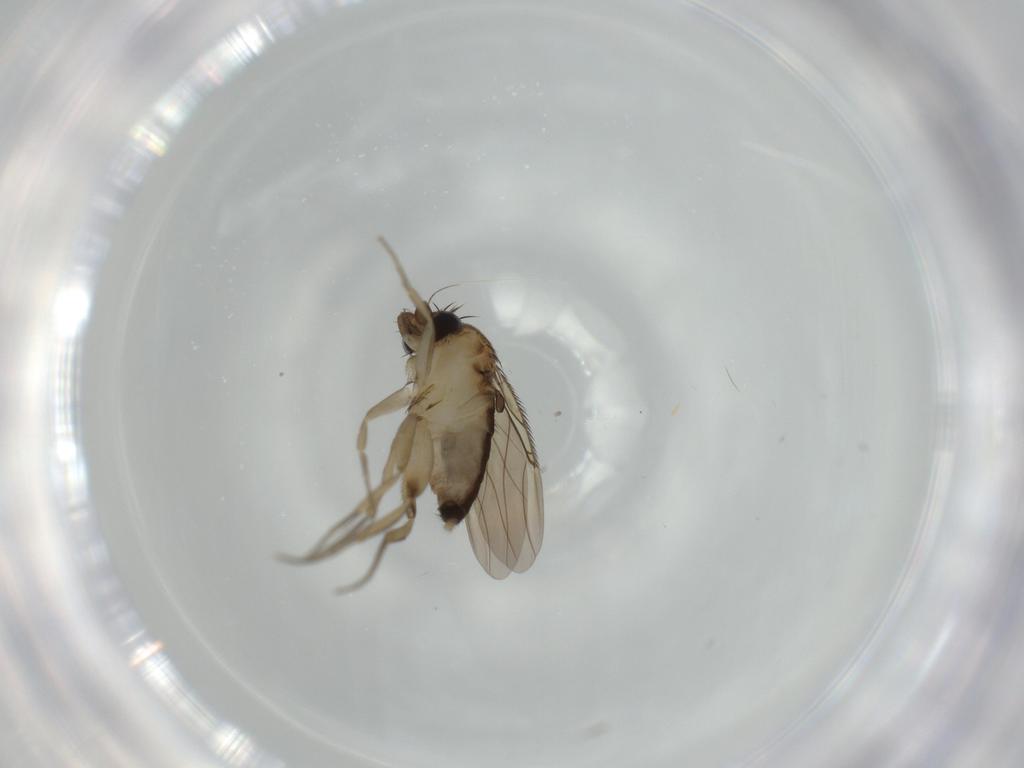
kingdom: Animalia
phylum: Arthropoda
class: Insecta
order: Diptera
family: Phoridae
